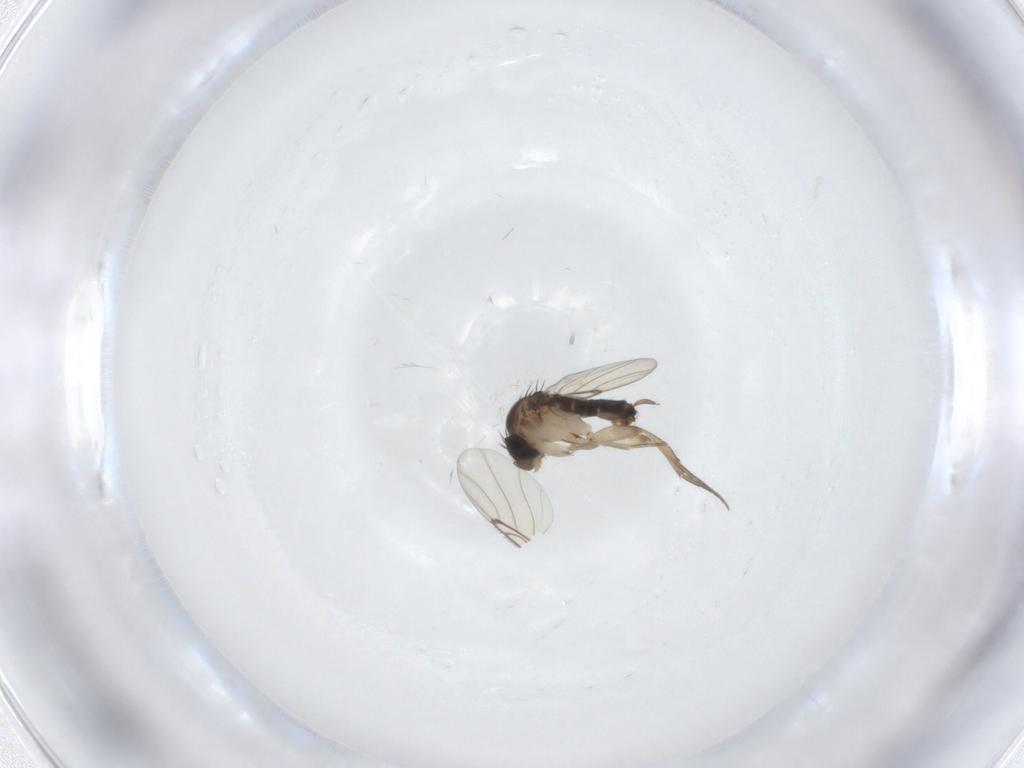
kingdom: Animalia
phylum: Arthropoda
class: Insecta
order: Diptera
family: Sciaridae
